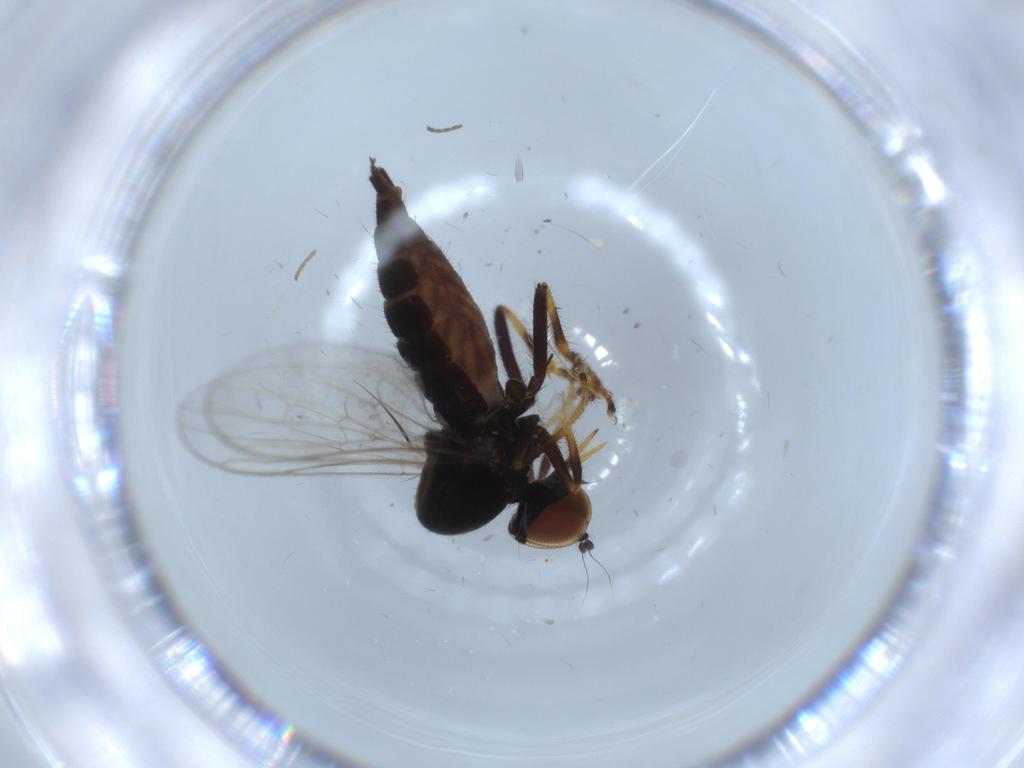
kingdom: Animalia
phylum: Arthropoda
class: Insecta
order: Diptera
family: Hybotidae
